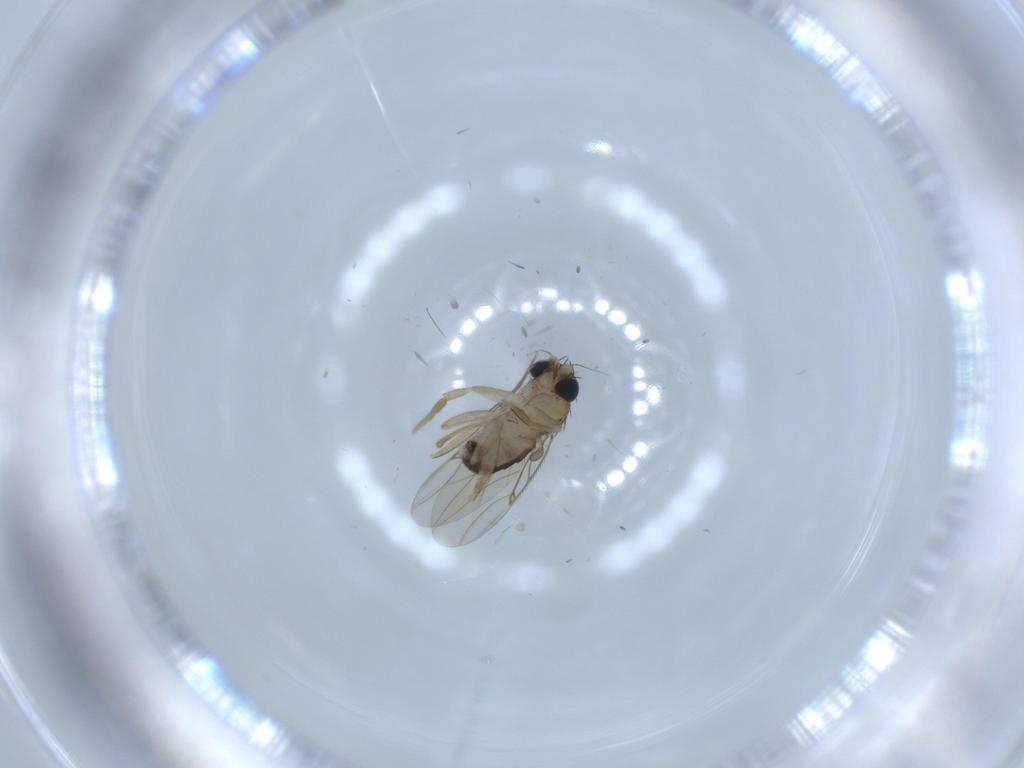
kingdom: Animalia
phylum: Arthropoda
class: Insecta
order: Diptera
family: Phoridae
